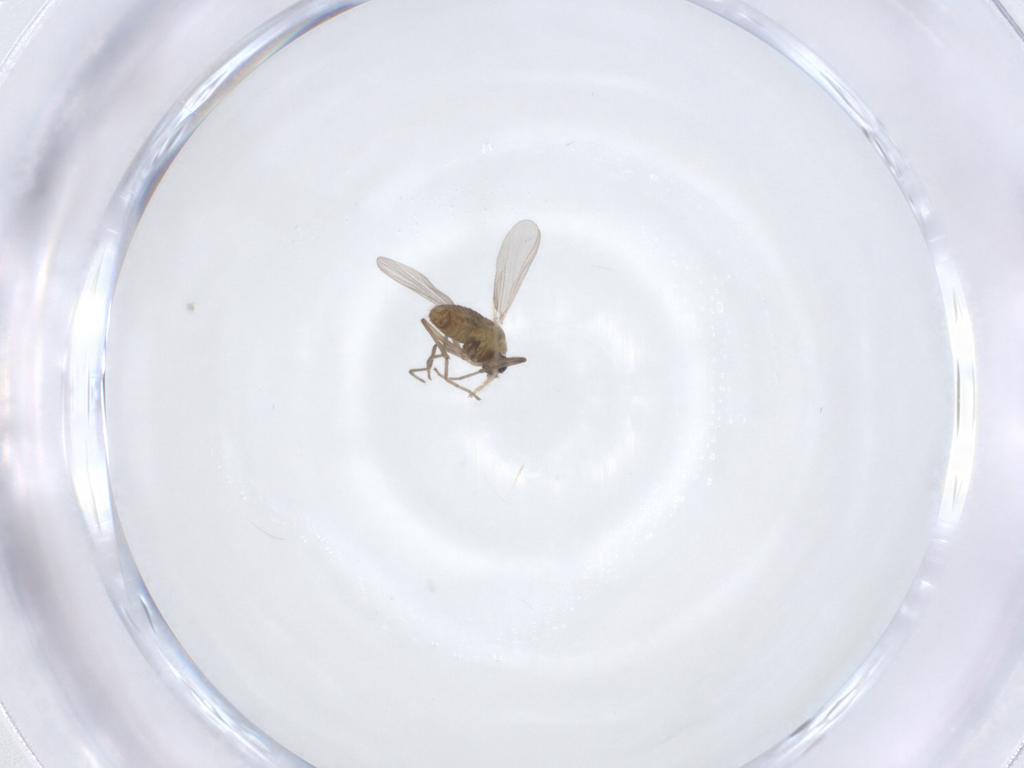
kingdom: Animalia
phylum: Arthropoda
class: Insecta
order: Diptera
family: Chironomidae
